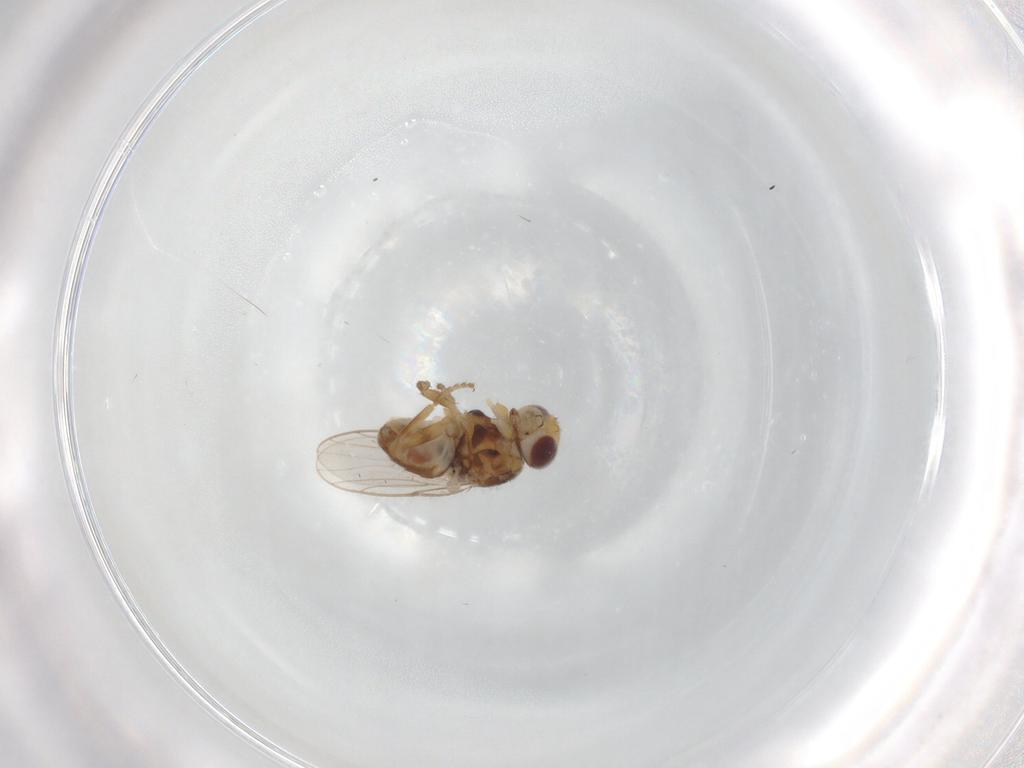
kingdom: Animalia
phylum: Arthropoda
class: Insecta
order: Diptera
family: Chloropidae
